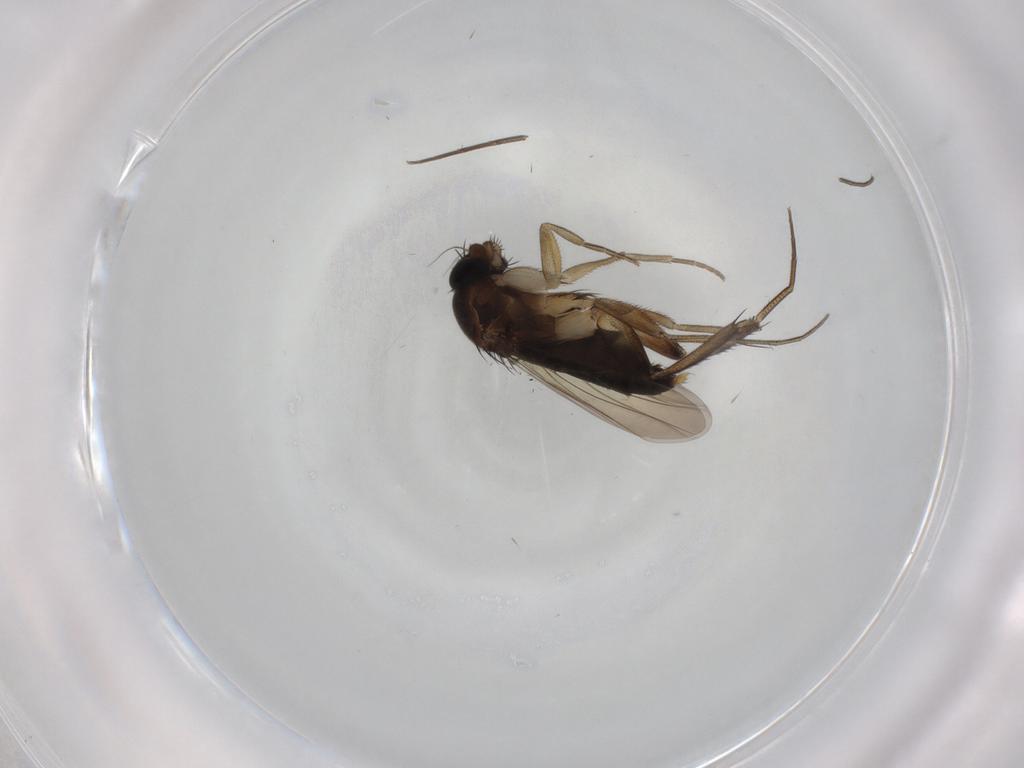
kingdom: Animalia
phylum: Arthropoda
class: Insecta
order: Diptera
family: Phoridae
